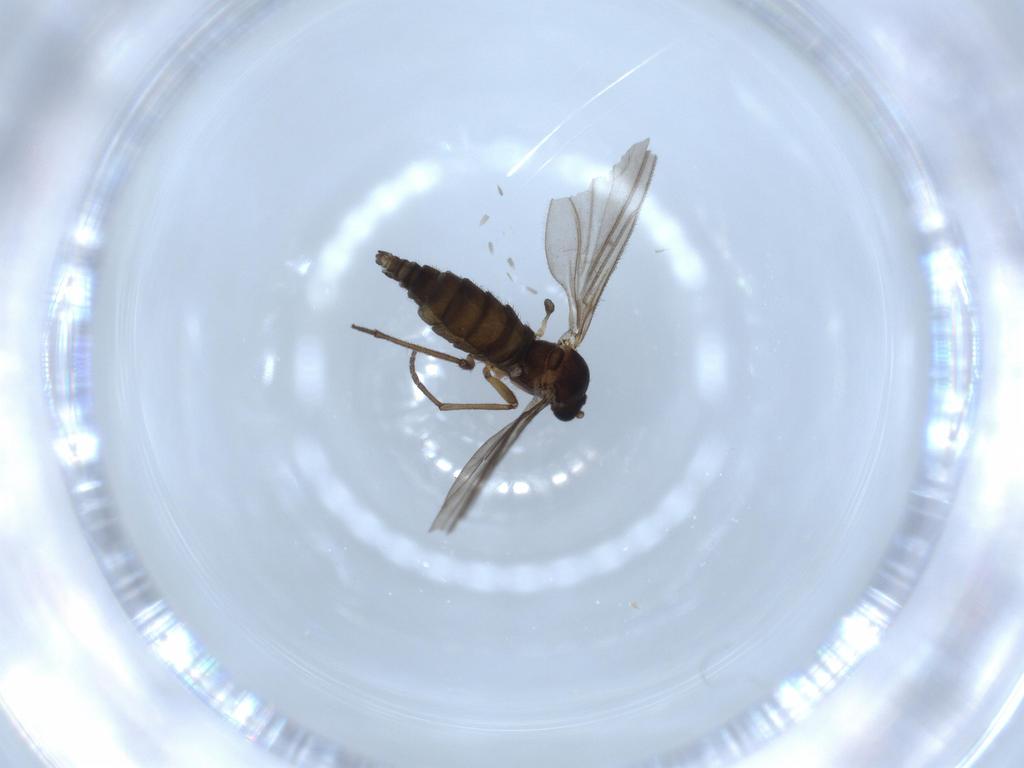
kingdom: Animalia
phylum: Arthropoda
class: Insecta
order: Diptera
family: Sciaridae
